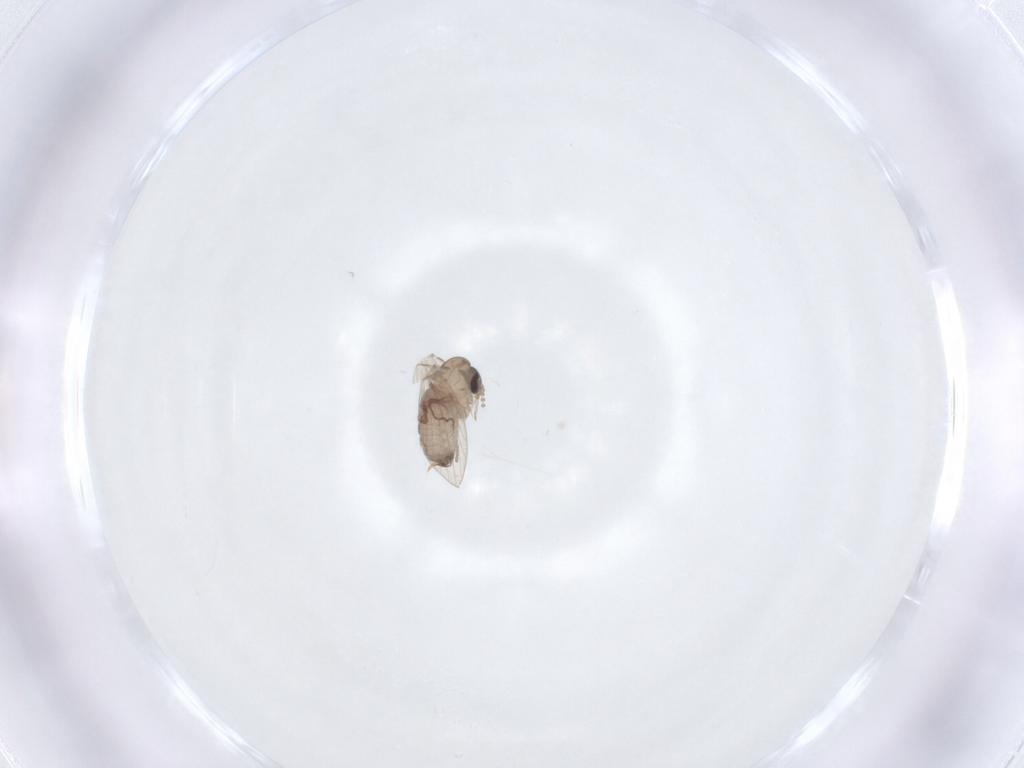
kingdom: Animalia
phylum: Arthropoda
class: Insecta
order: Diptera
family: Psychodidae
